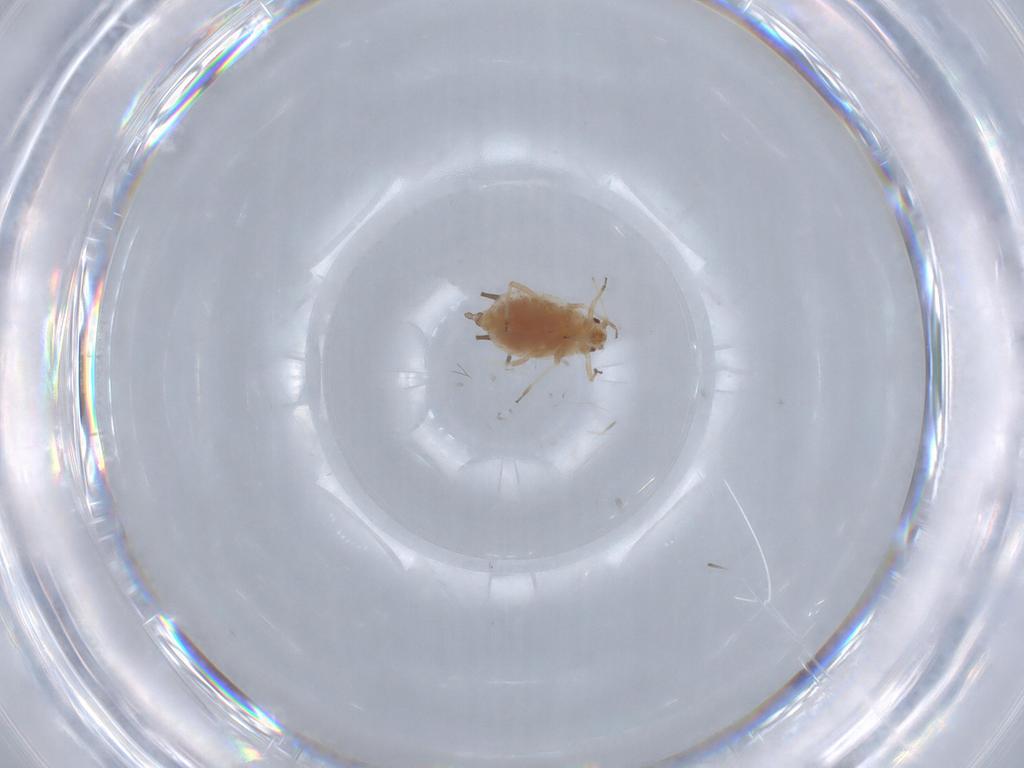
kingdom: Animalia
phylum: Arthropoda
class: Insecta
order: Hemiptera
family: Aphididae
